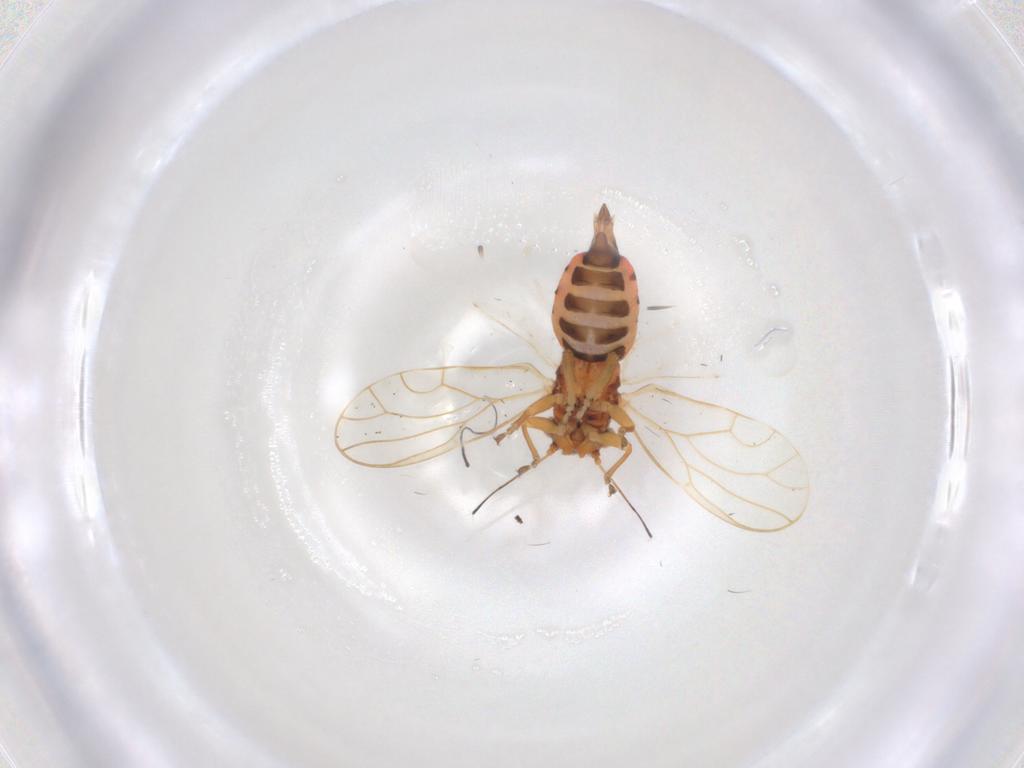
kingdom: Animalia
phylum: Arthropoda
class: Insecta
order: Hemiptera
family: Cicadellidae
